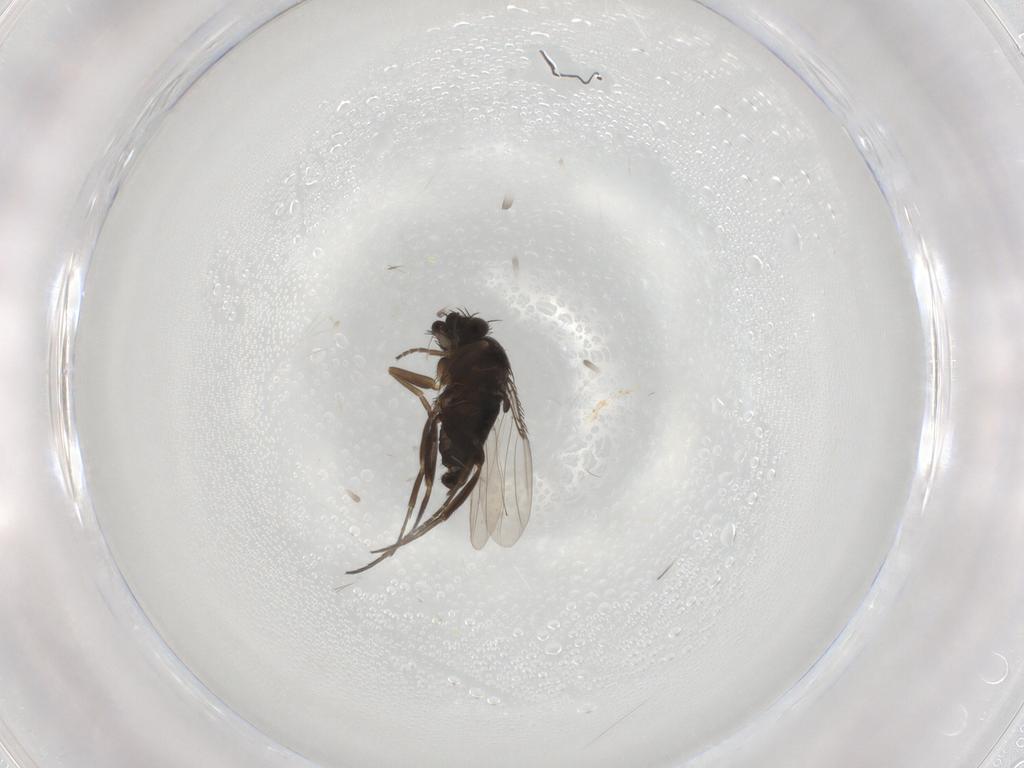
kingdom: Animalia
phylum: Arthropoda
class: Insecta
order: Diptera
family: Phoridae
